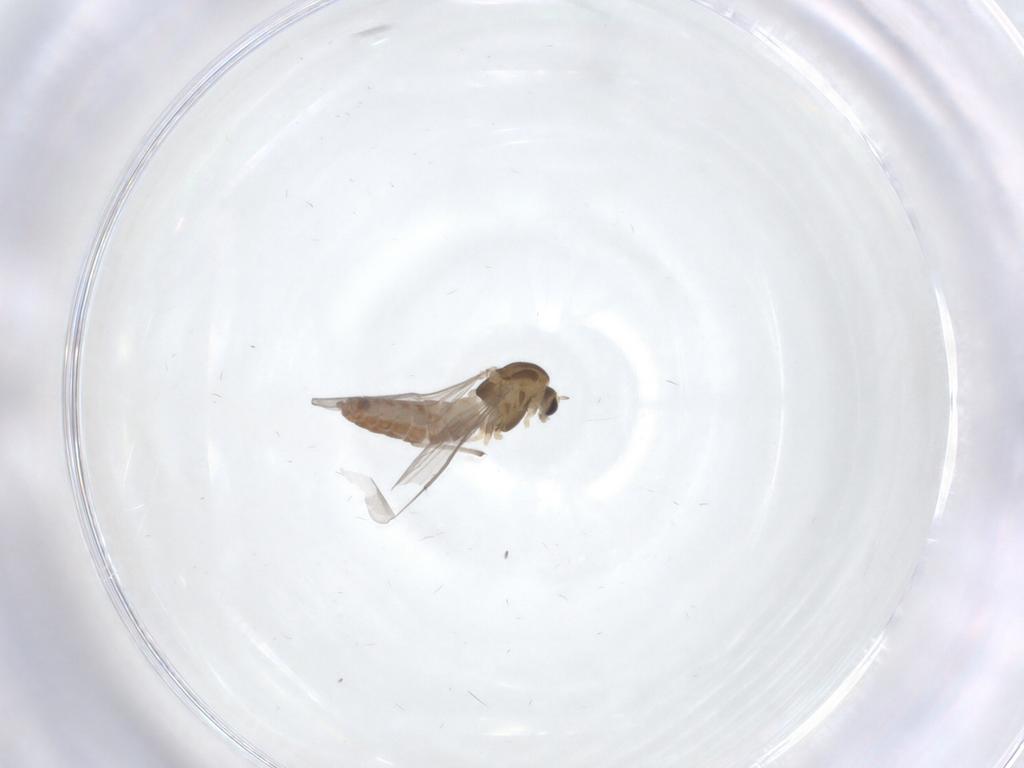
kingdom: Animalia
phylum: Arthropoda
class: Insecta
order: Diptera
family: Chironomidae
